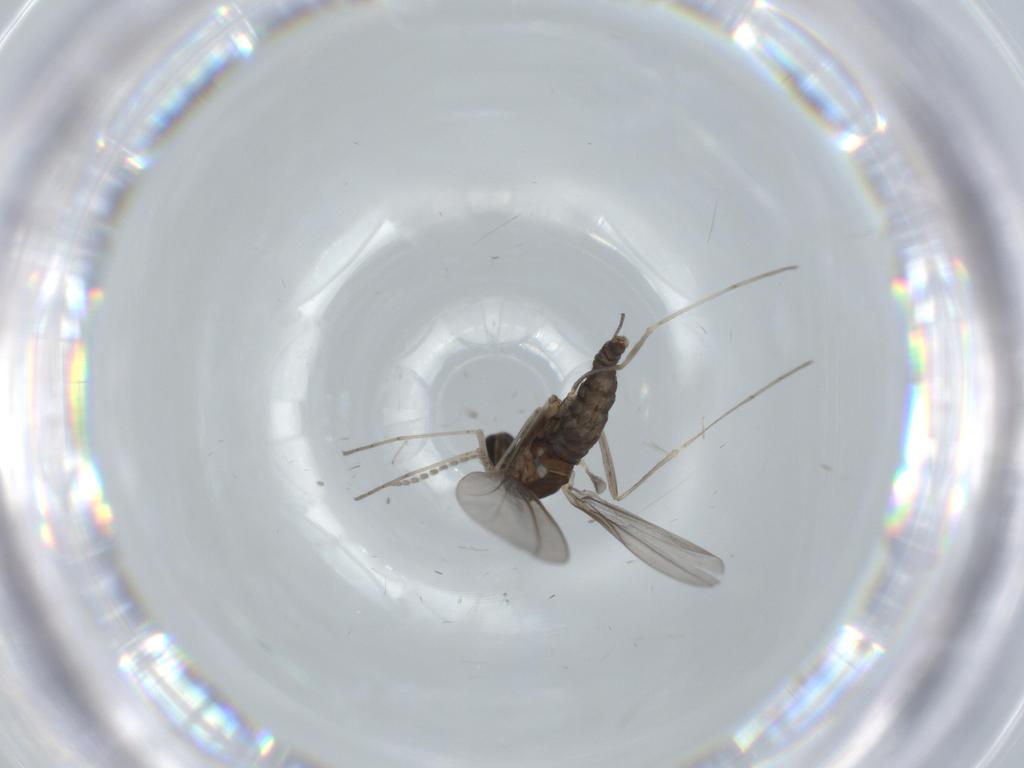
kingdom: Animalia
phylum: Arthropoda
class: Insecta
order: Diptera
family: Ceratopogonidae
